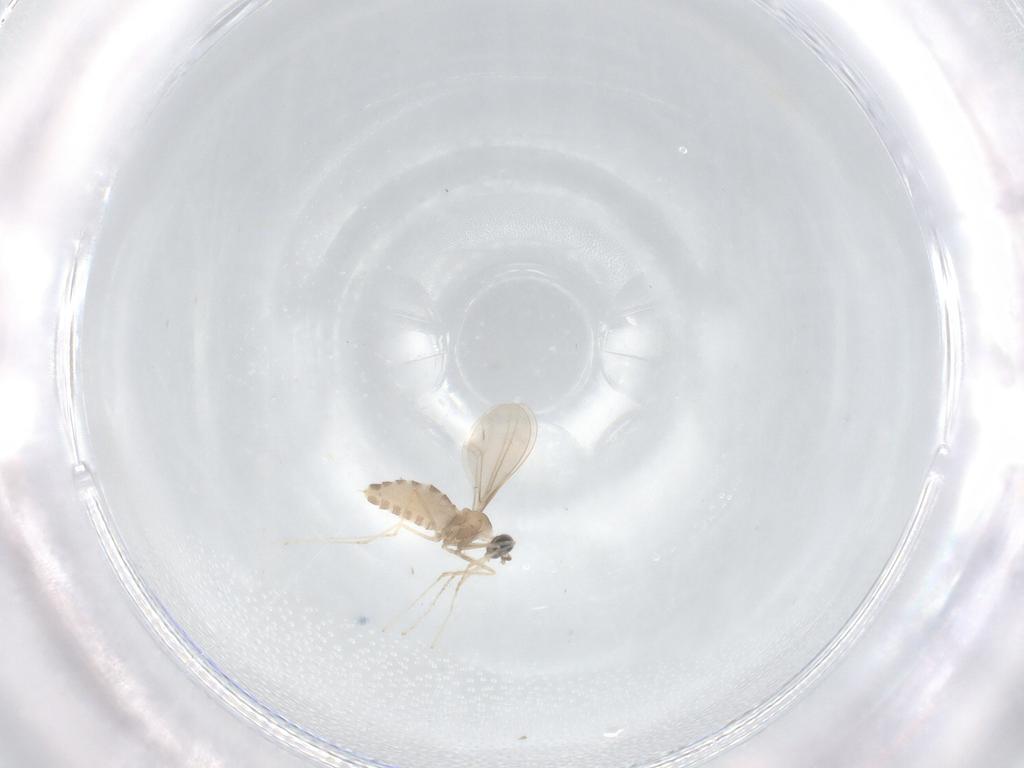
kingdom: Animalia
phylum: Arthropoda
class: Insecta
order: Diptera
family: Cecidomyiidae
